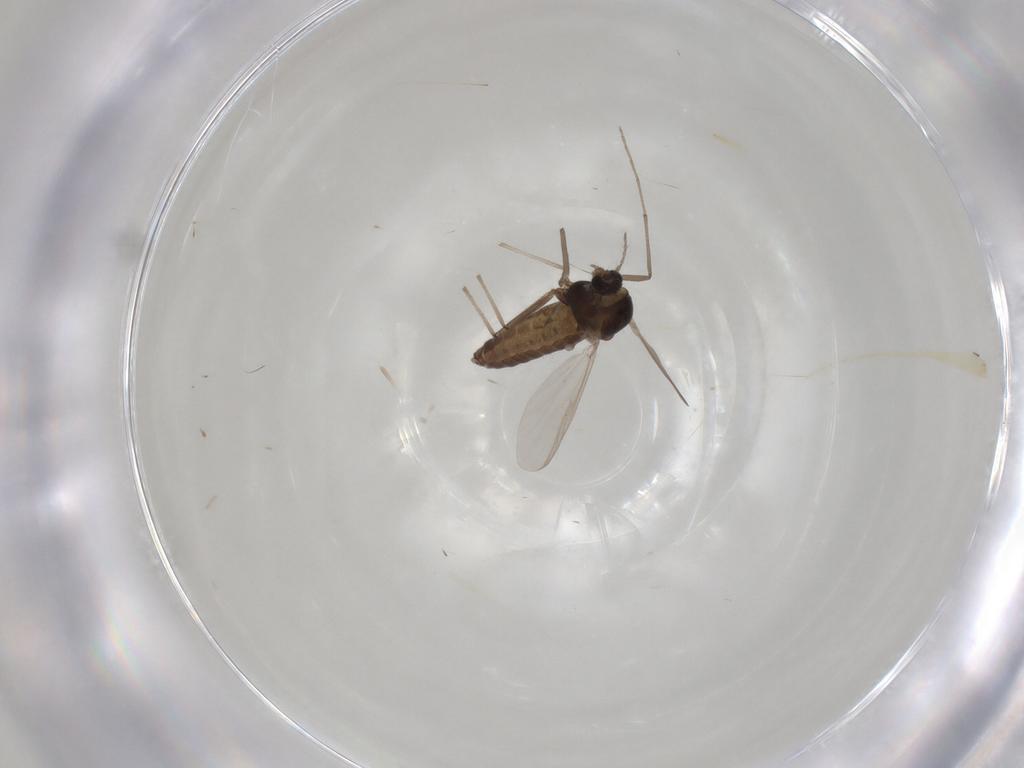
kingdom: Animalia
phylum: Arthropoda
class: Insecta
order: Diptera
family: Chironomidae
